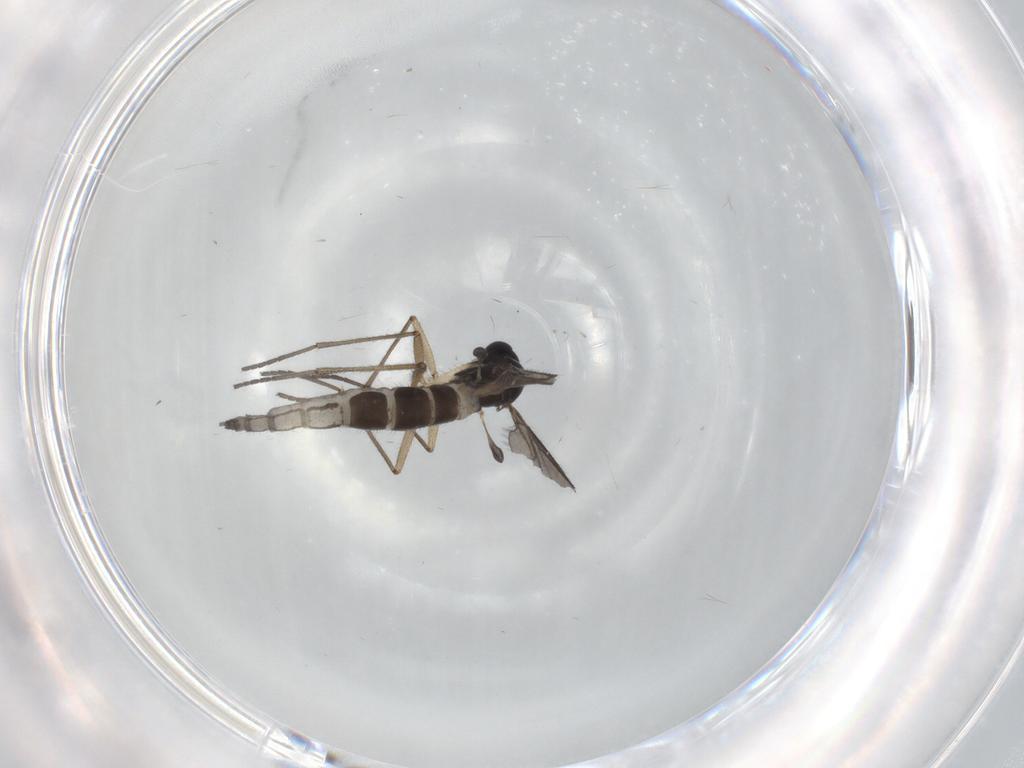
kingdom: Animalia
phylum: Arthropoda
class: Insecta
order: Diptera
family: Sciaridae
